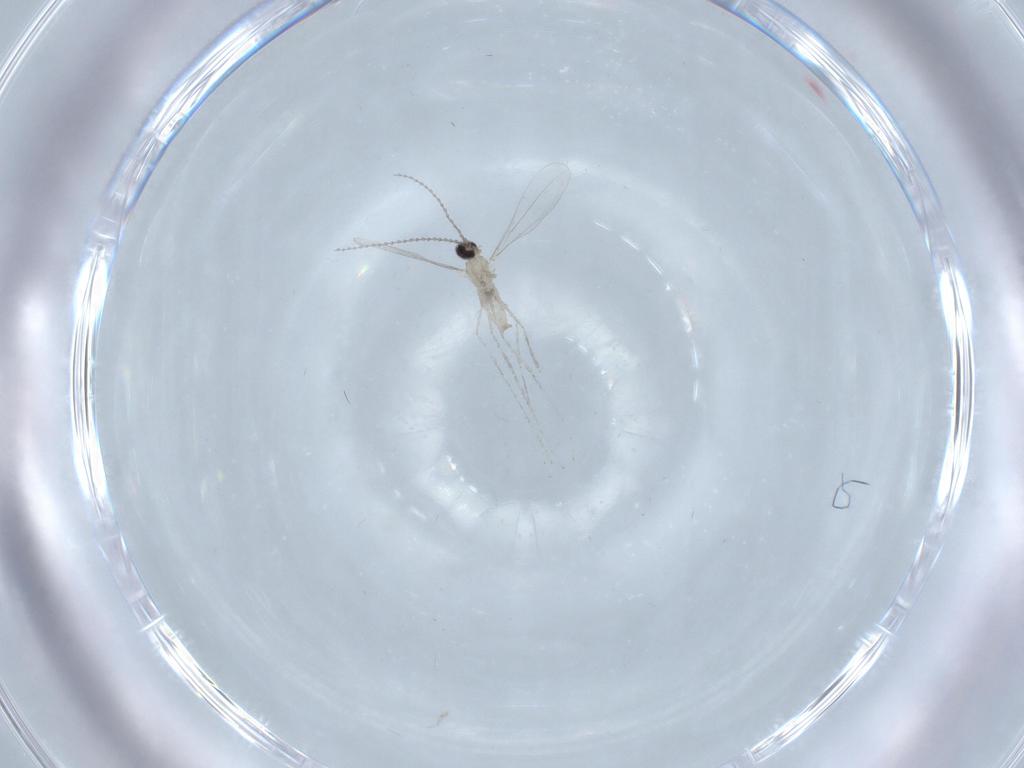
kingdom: Animalia
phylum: Arthropoda
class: Insecta
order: Diptera
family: Cecidomyiidae
